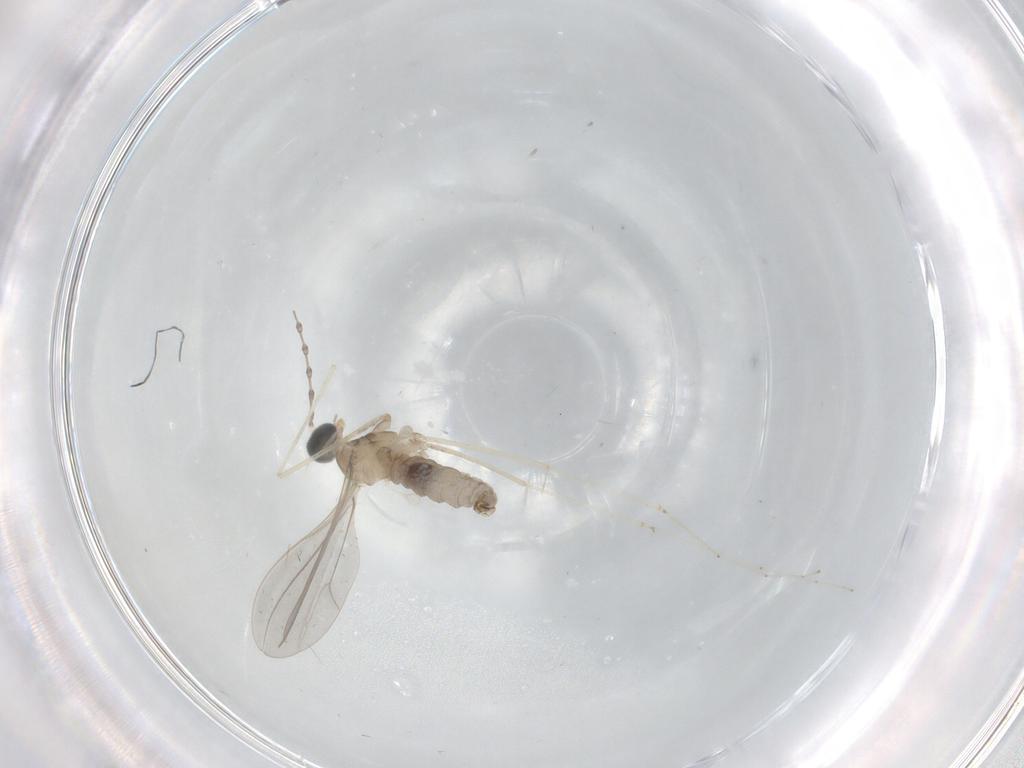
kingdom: Animalia
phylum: Arthropoda
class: Insecta
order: Diptera
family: Cecidomyiidae
